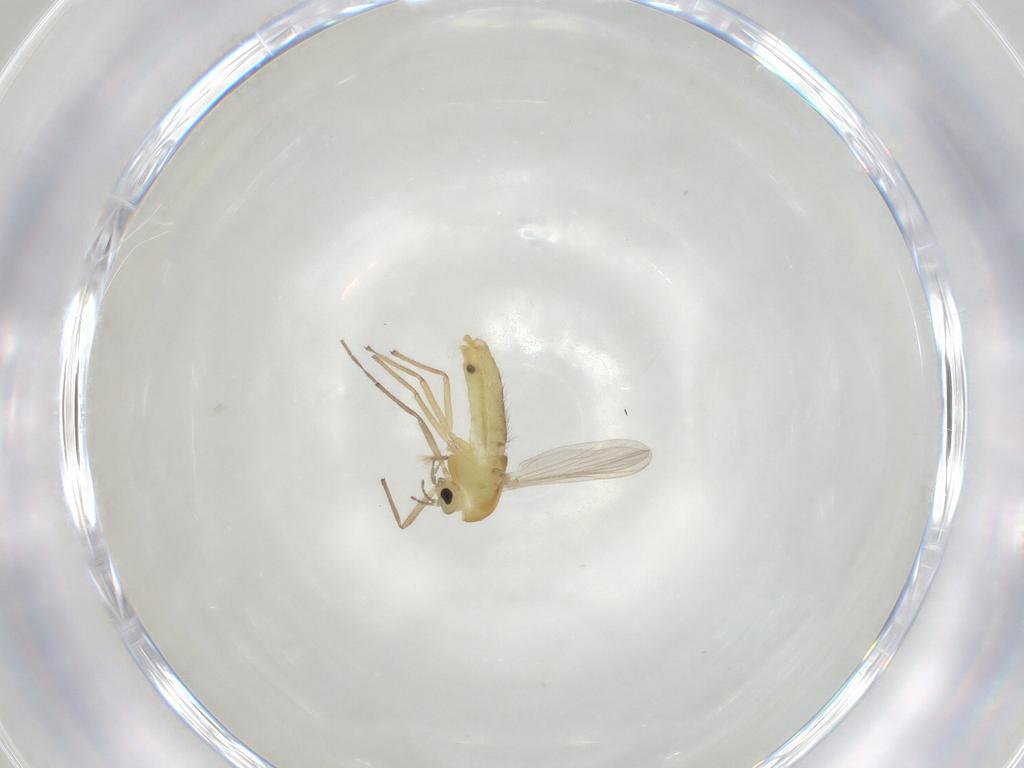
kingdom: Animalia
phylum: Arthropoda
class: Insecta
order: Diptera
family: Chironomidae
